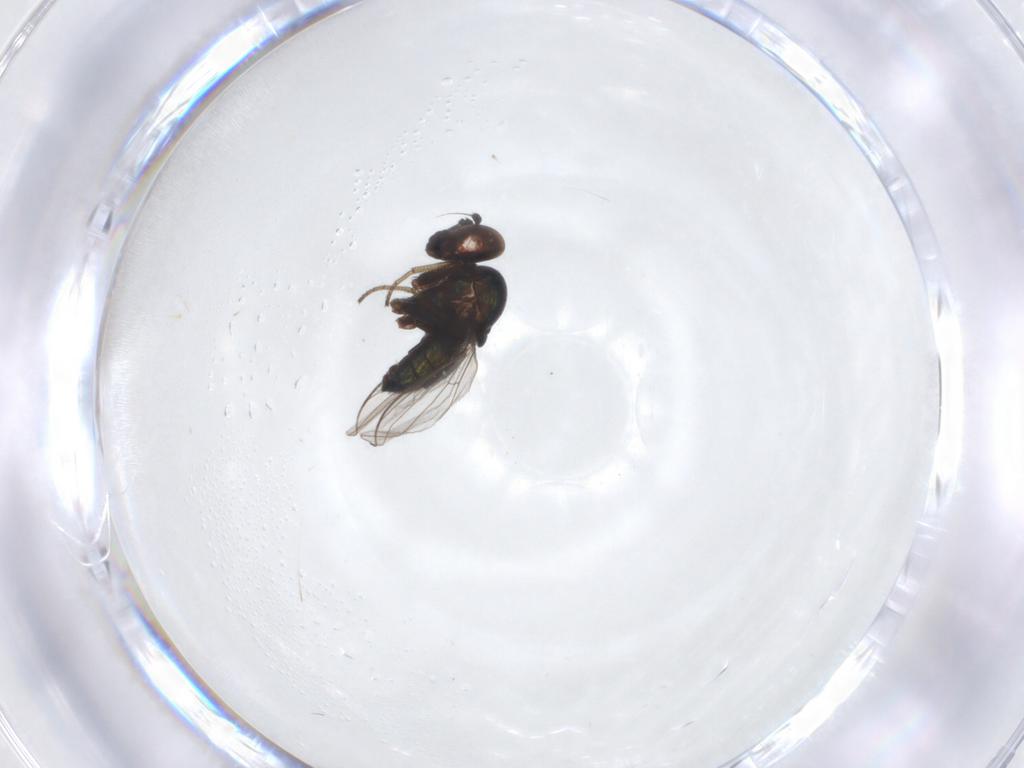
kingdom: Animalia
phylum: Arthropoda
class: Insecta
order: Diptera
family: Dolichopodidae
